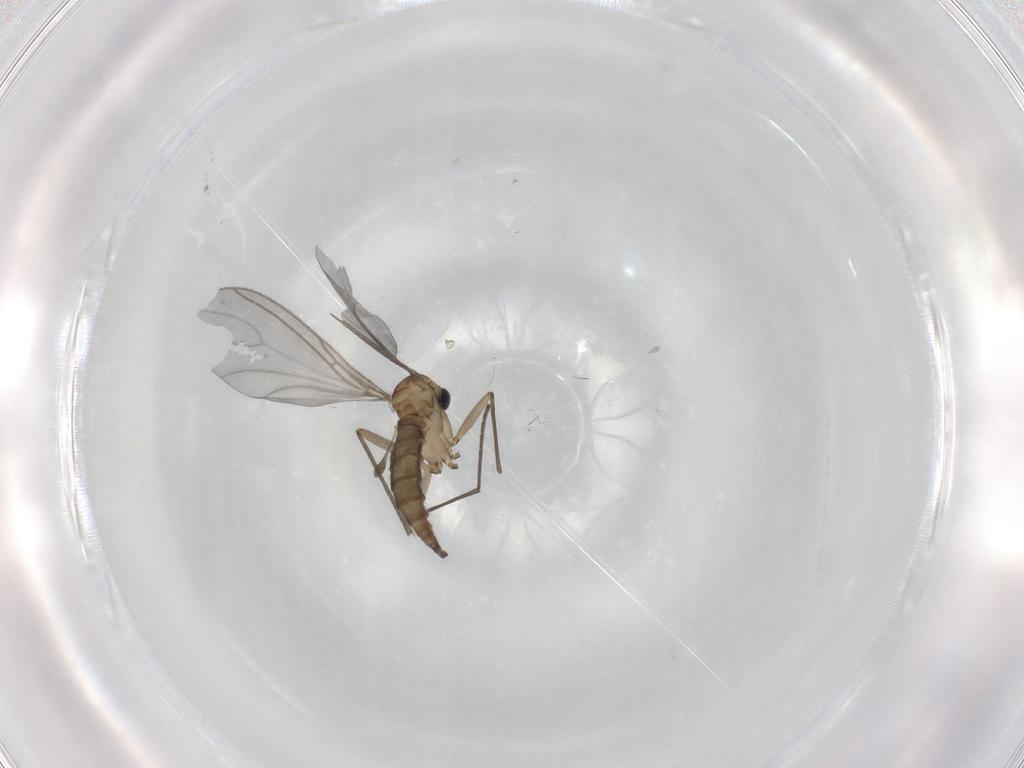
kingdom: Animalia
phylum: Arthropoda
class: Insecta
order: Diptera
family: Sciaridae
